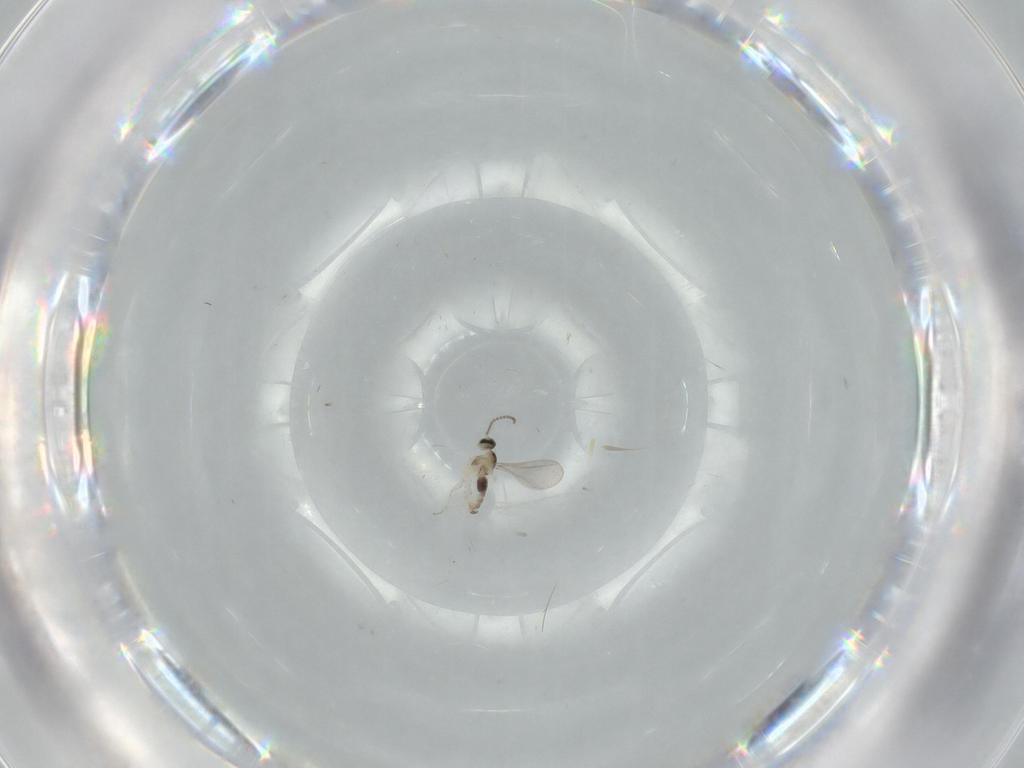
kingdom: Animalia
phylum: Arthropoda
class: Insecta
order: Diptera
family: Cecidomyiidae
